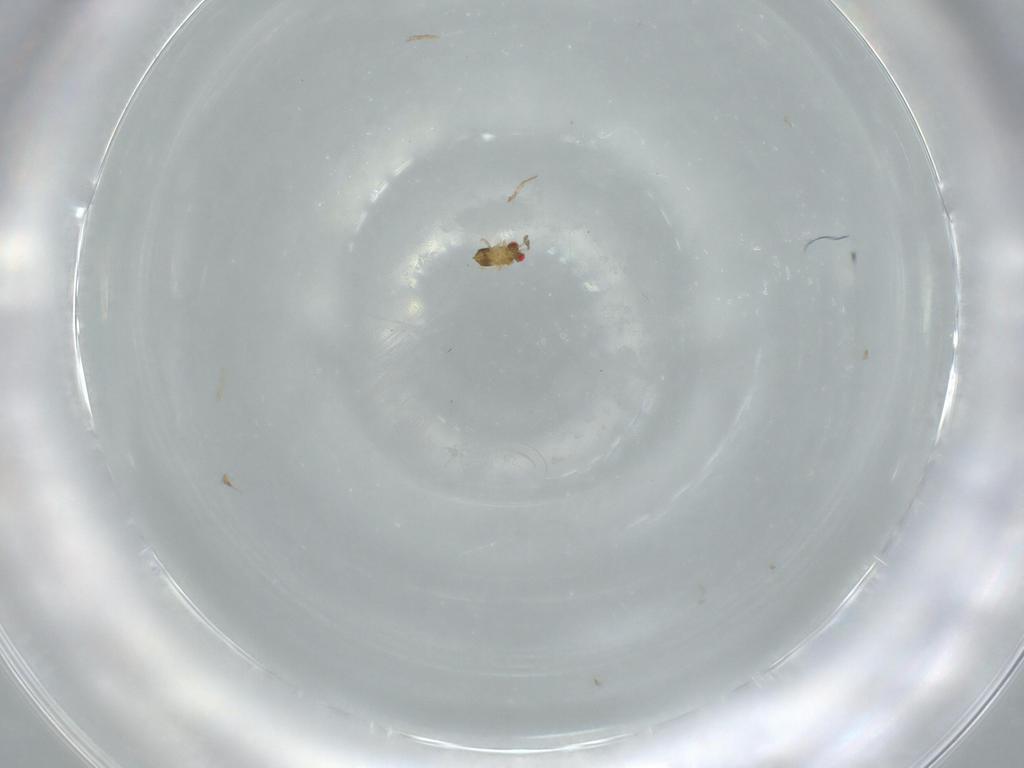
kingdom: Animalia
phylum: Arthropoda
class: Insecta
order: Hymenoptera
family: Trichogrammatidae
